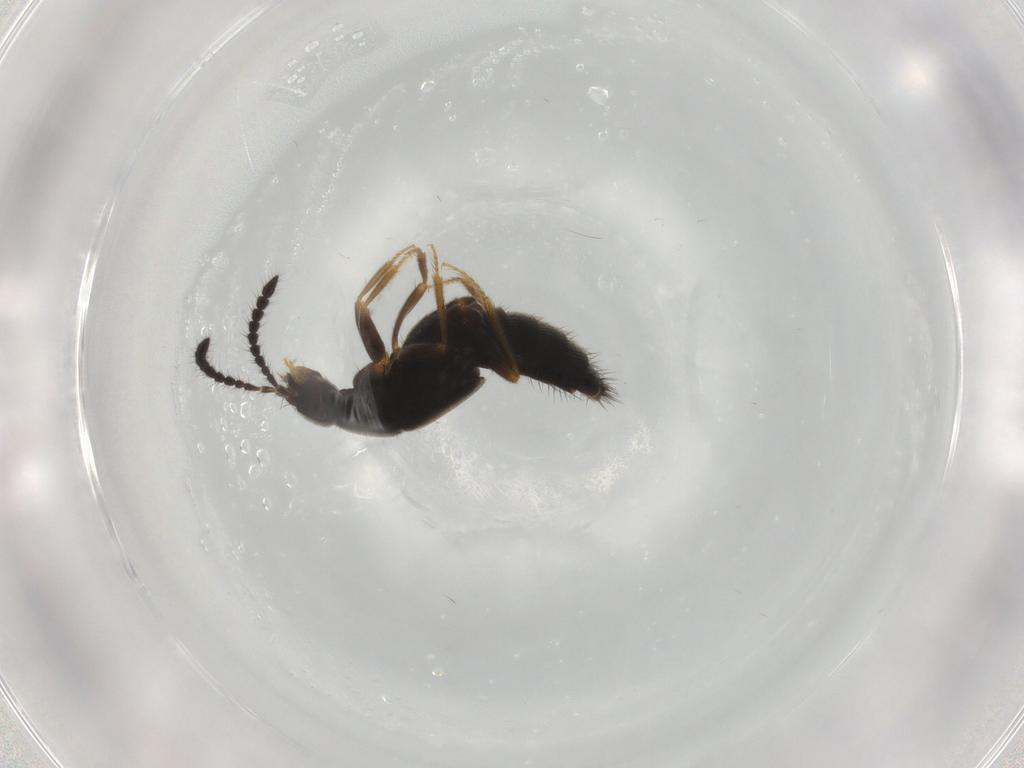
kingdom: Animalia
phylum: Arthropoda
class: Insecta
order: Coleoptera
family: Staphylinidae
